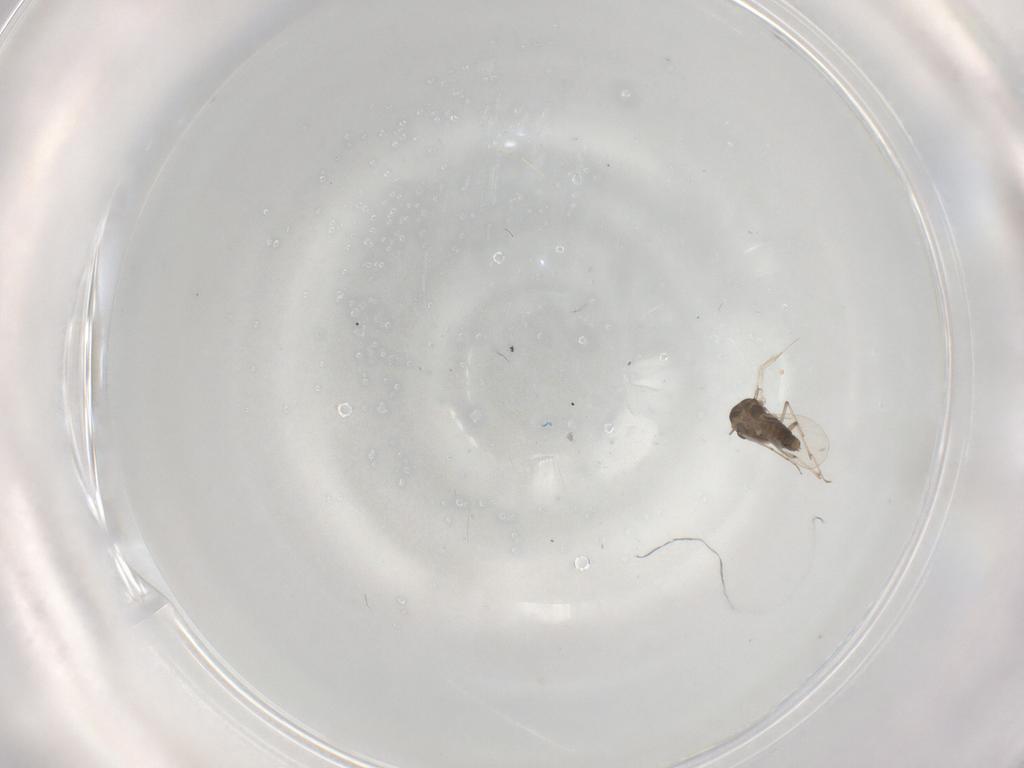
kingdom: Animalia
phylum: Arthropoda
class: Insecta
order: Diptera
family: Chironomidae
